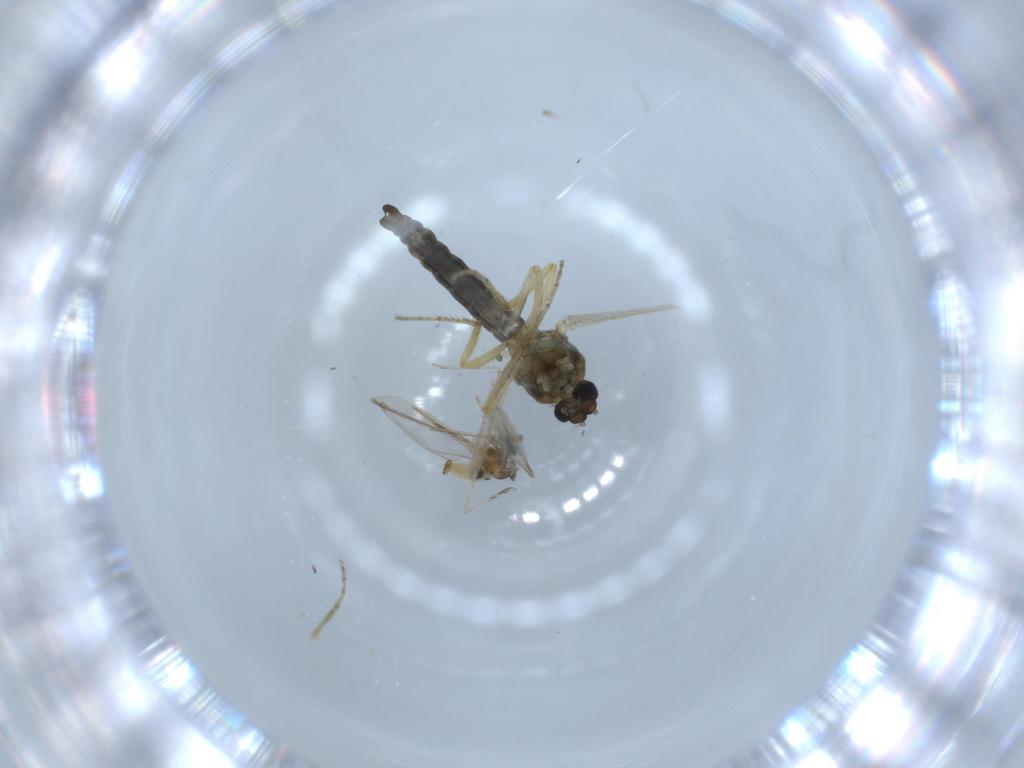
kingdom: Animalia
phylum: Arthropoda
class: Insecta
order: Diptera
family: Cecidomyiidae
